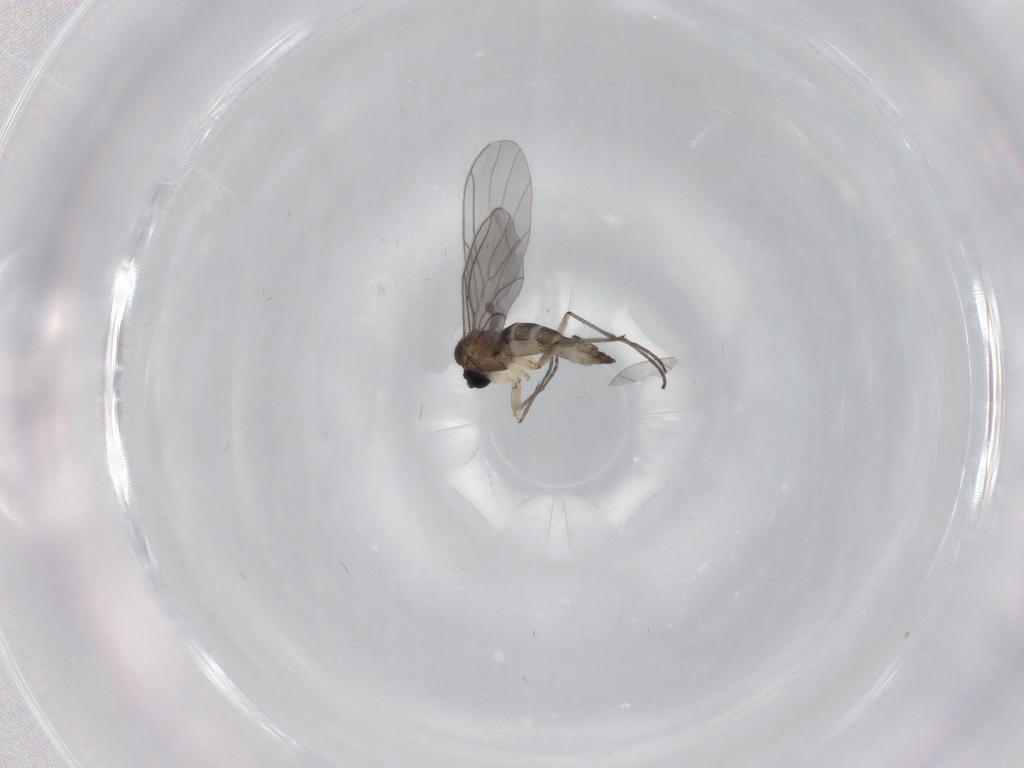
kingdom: Animalia
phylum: Arthropoda
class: Insecta
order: Diptera
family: Sciaridae
